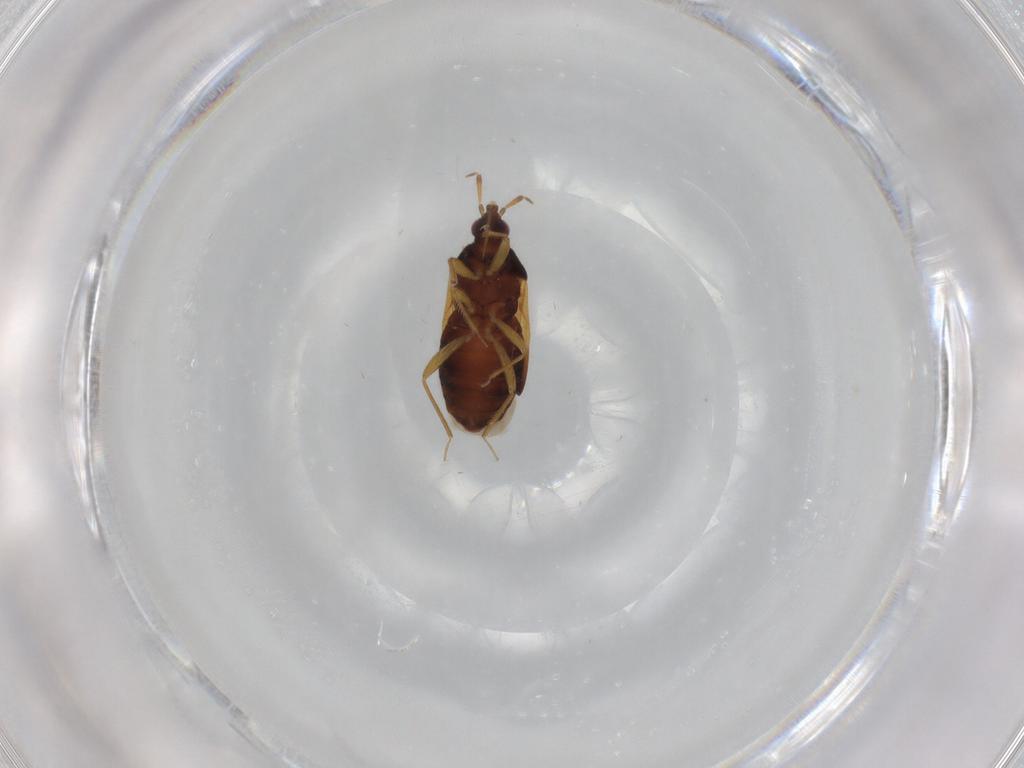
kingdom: Animalia
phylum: Arthropoda
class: Insecta
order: Hemiptera
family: Anthocoridae
